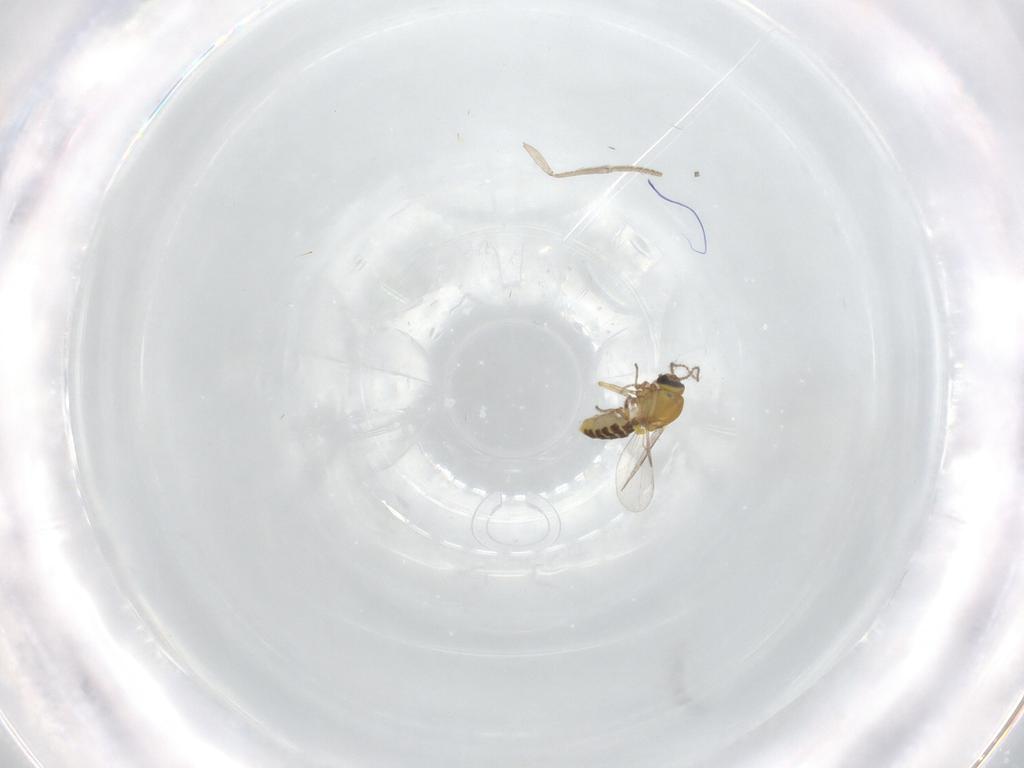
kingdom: Animalia
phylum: Arthropoda
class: Insecta
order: Diptera
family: Ceratopogonidae
